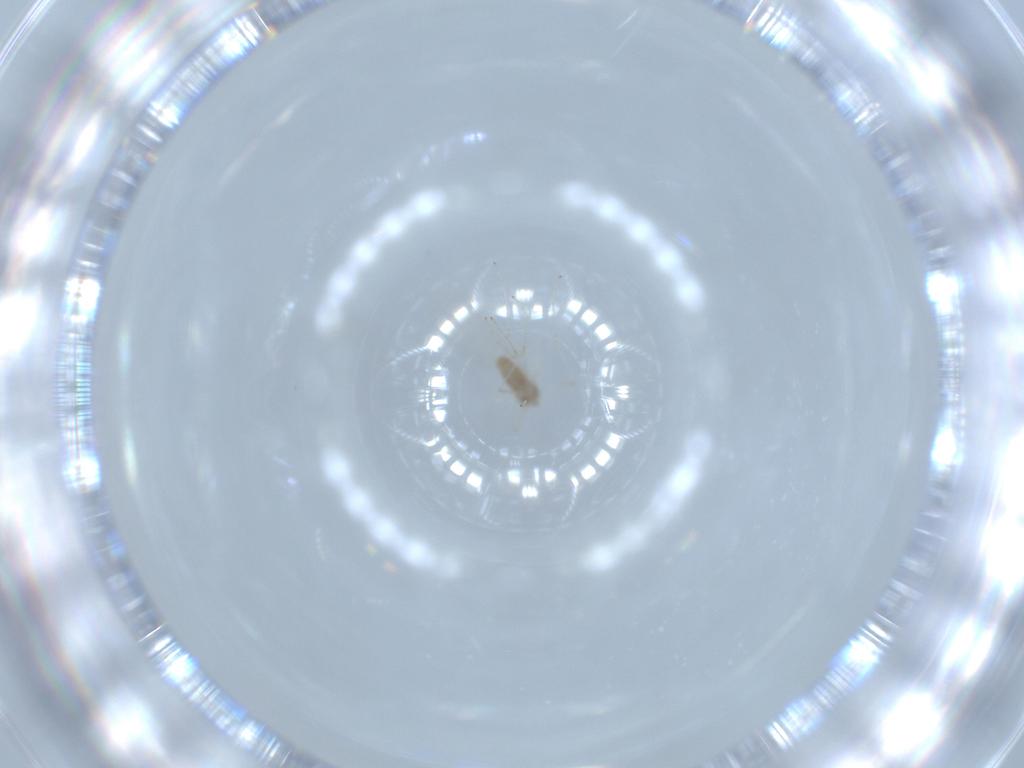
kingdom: Animalia
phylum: Arthropoda
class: Insecta
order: Diptera
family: Cecidomyiidae
